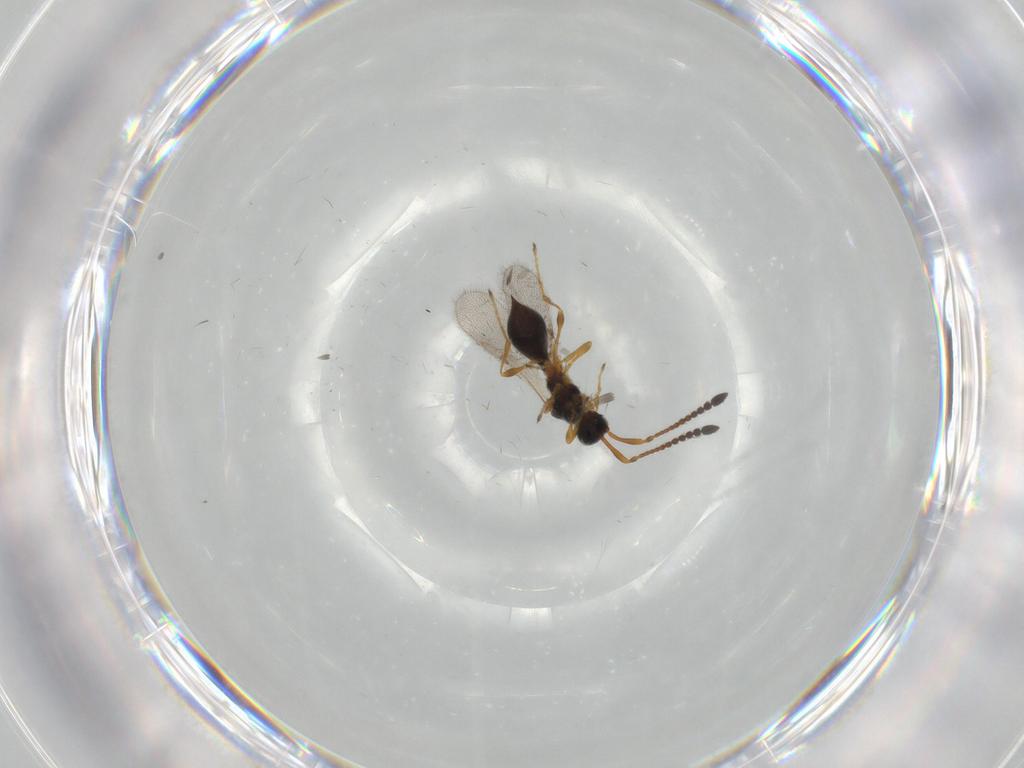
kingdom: Animalia
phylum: Arthropoda
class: Insecta
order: Hymenoptera
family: Diapriidae
